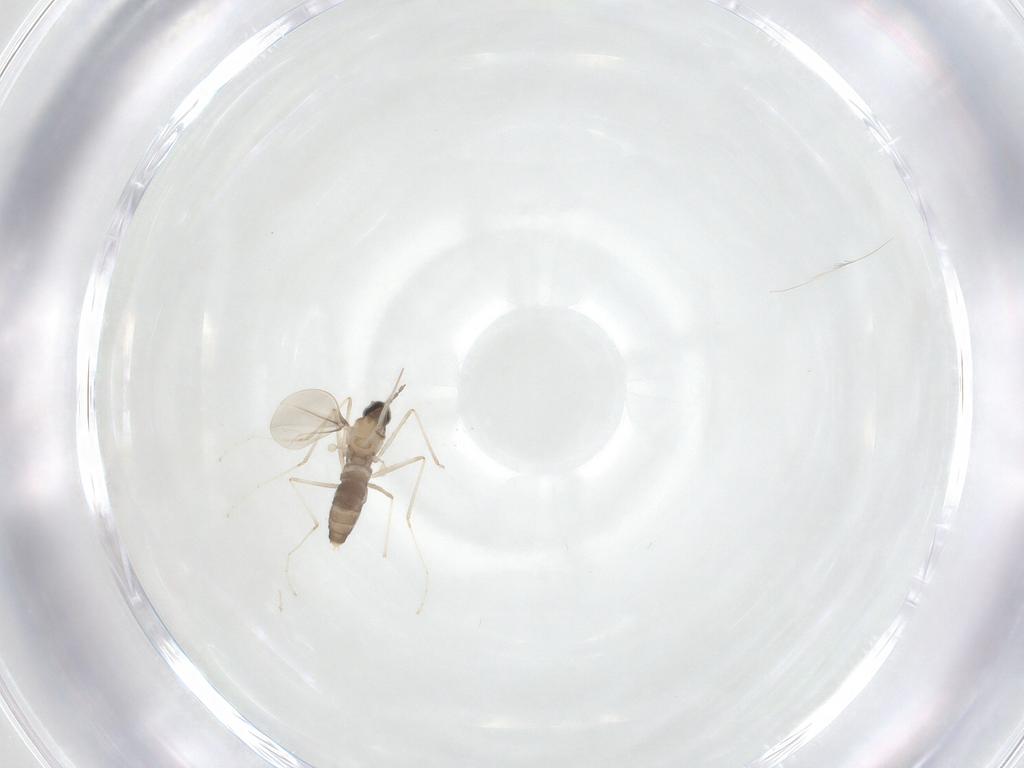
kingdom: Animalia
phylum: Arthropoda
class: Insecta
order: Diptera
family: Cecidomyiidae
